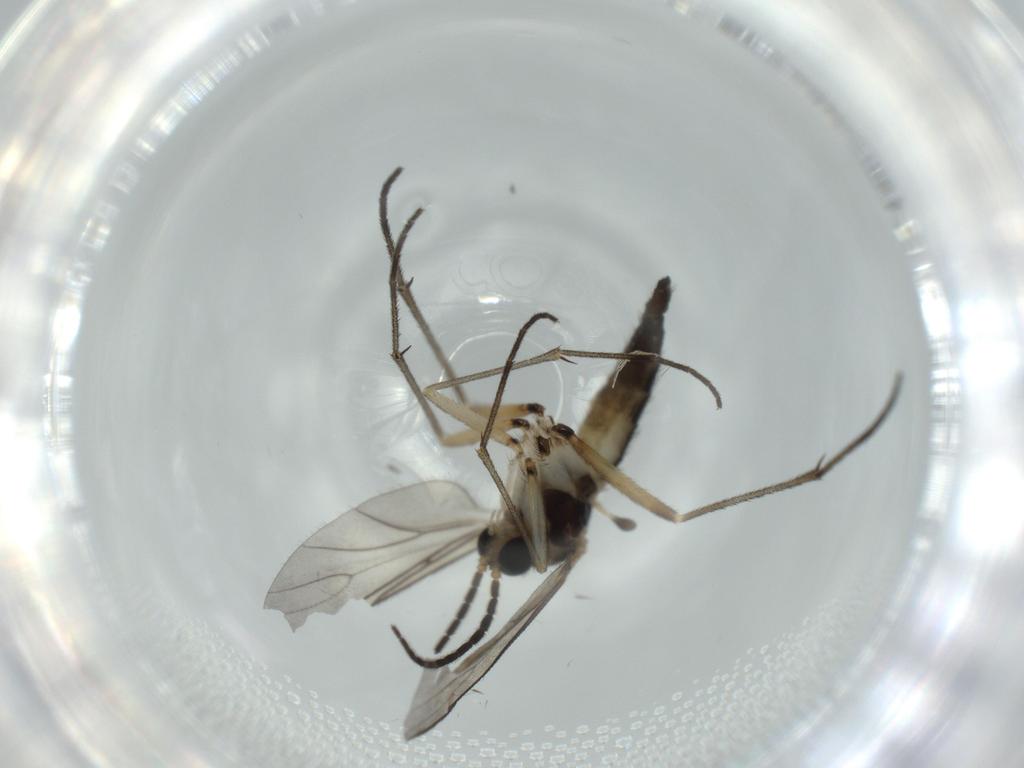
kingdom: Animalia
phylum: Arthropoda
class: Insecta
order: Diptera
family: Sciaridae
